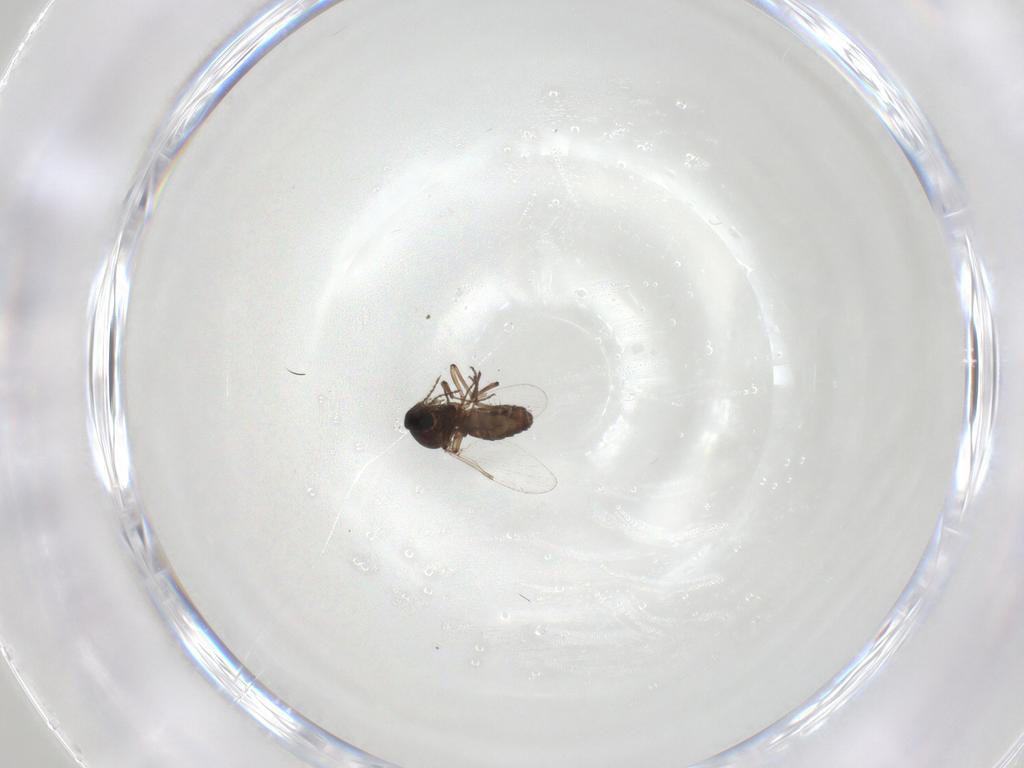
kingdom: Animalia
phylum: Arthropoda
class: Insecta
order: Diptera
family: Ceratopogonidae
